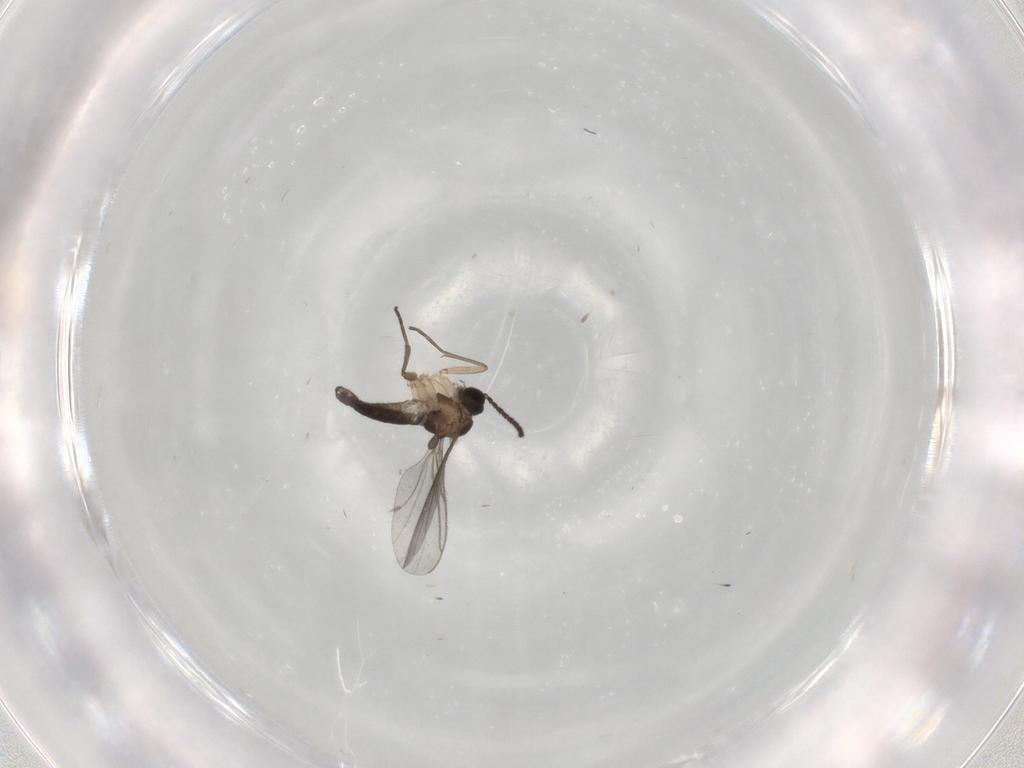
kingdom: Animalia
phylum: Arthropoda
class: Insecta
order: Diptera
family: Sciaridae
